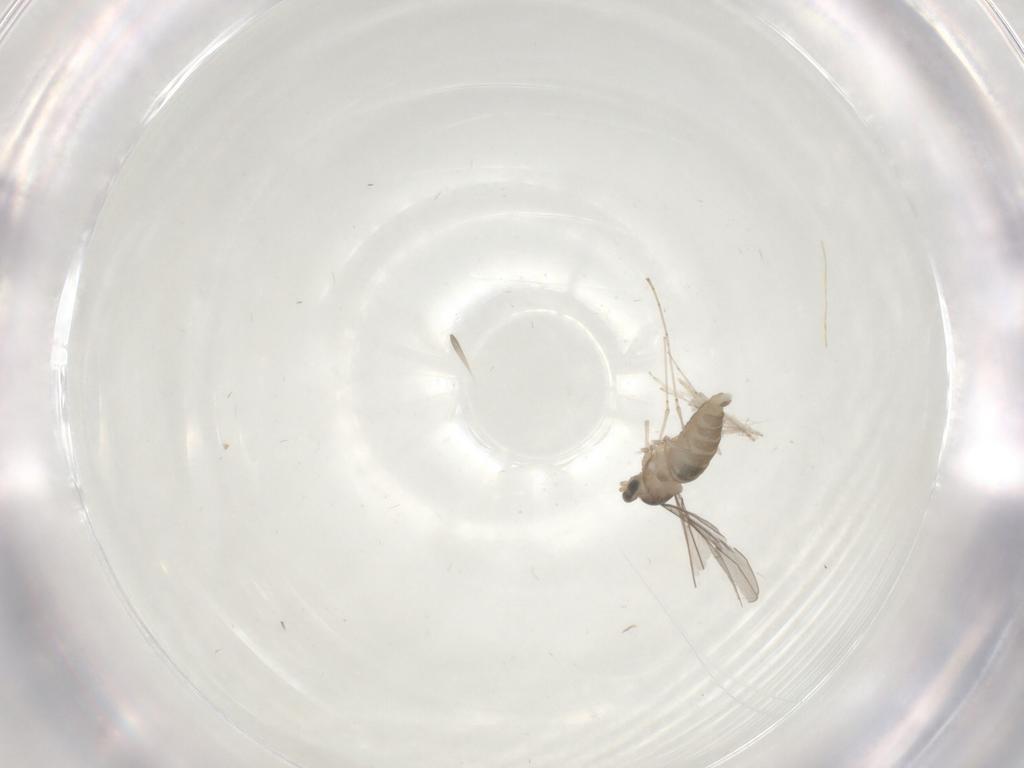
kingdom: Animalia
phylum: Arthropoda
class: Insecta
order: Diptera
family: Cecidomyiidae
